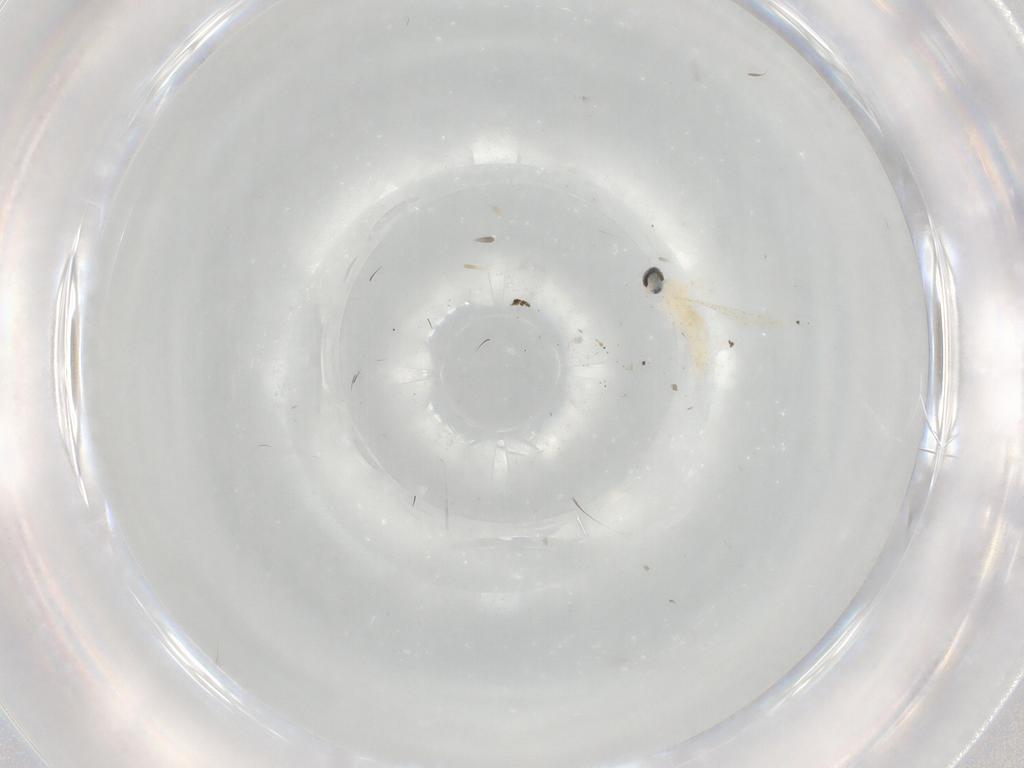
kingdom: Animalia
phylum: Arthropoda
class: Insecta
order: Diptera
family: Cecidomyiidae
